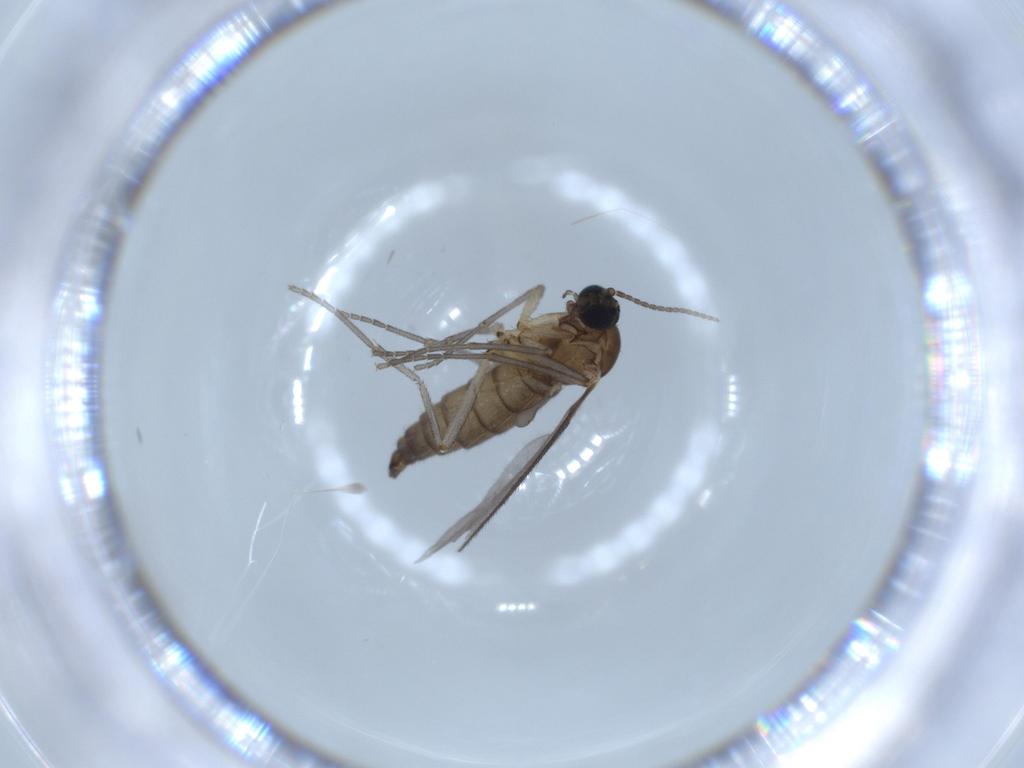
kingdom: Animalia
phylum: Arthropoda
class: Insecta
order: Diptera
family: Sciaridae
